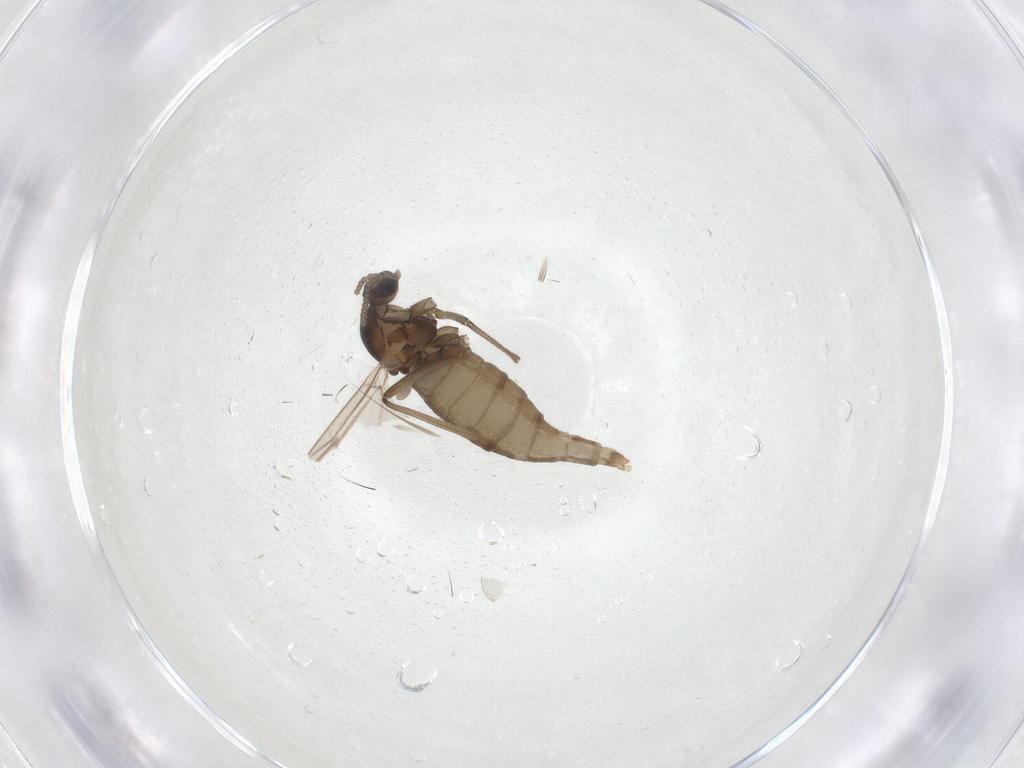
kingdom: Animalia
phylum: Arthropoda
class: Insecta
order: Diptera
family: Cecidomyiidae
